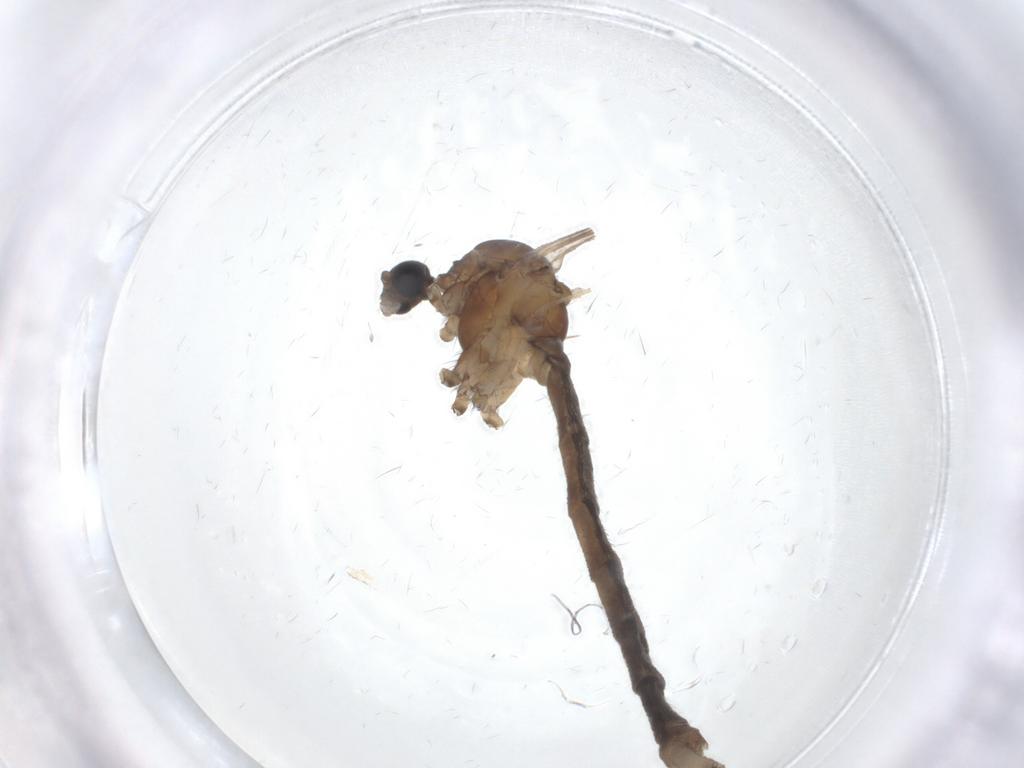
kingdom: Animalia
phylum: Arthropoda
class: Insecta
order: Diptera
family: Limoniidae
